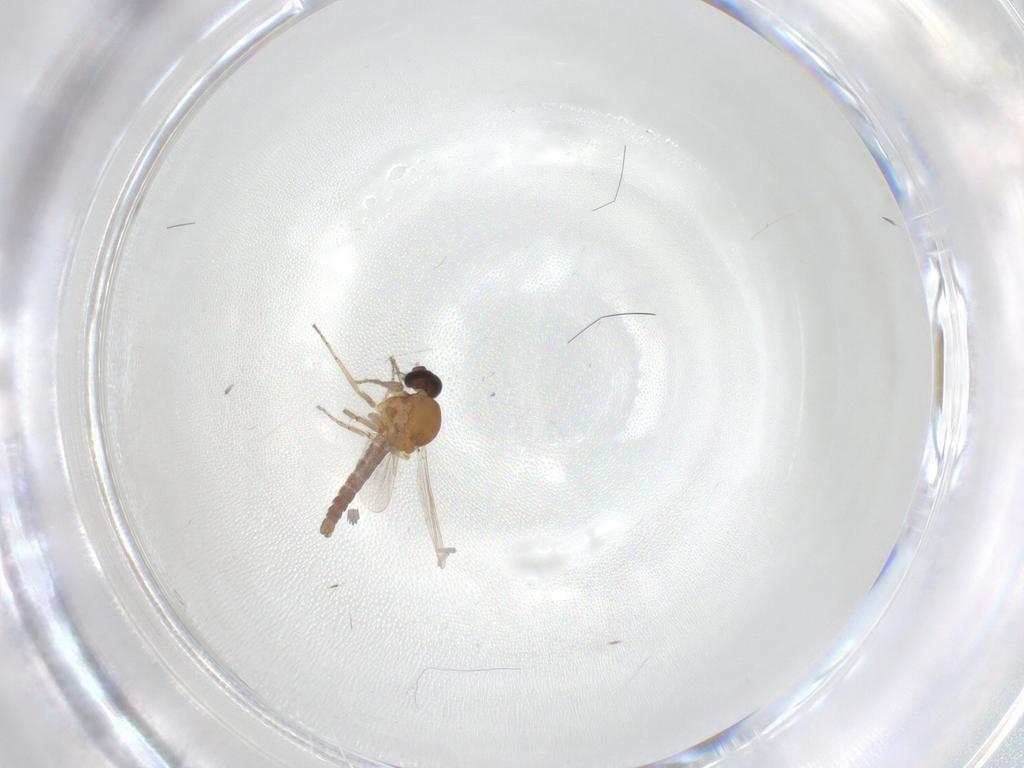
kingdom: Animalia
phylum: Arthropoda
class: Insecta
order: Diptera
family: Ceratopogonidae
